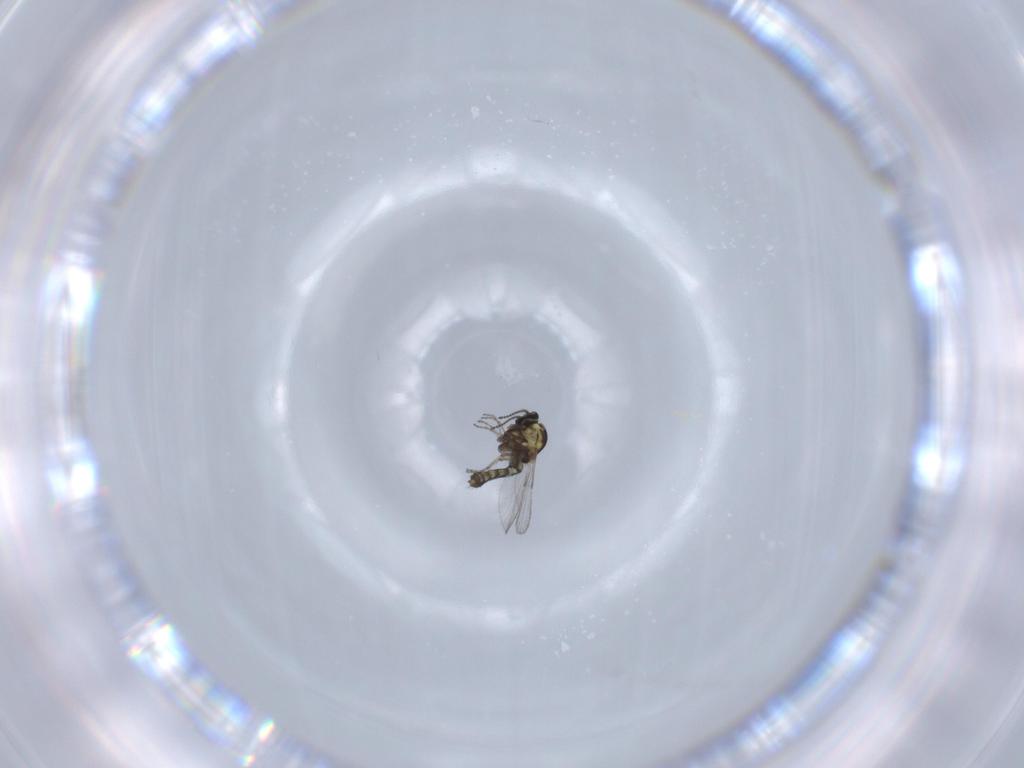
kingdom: Animalia
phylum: Arthropoda
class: Insecta
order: Diptera
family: Ceratopogonidae
